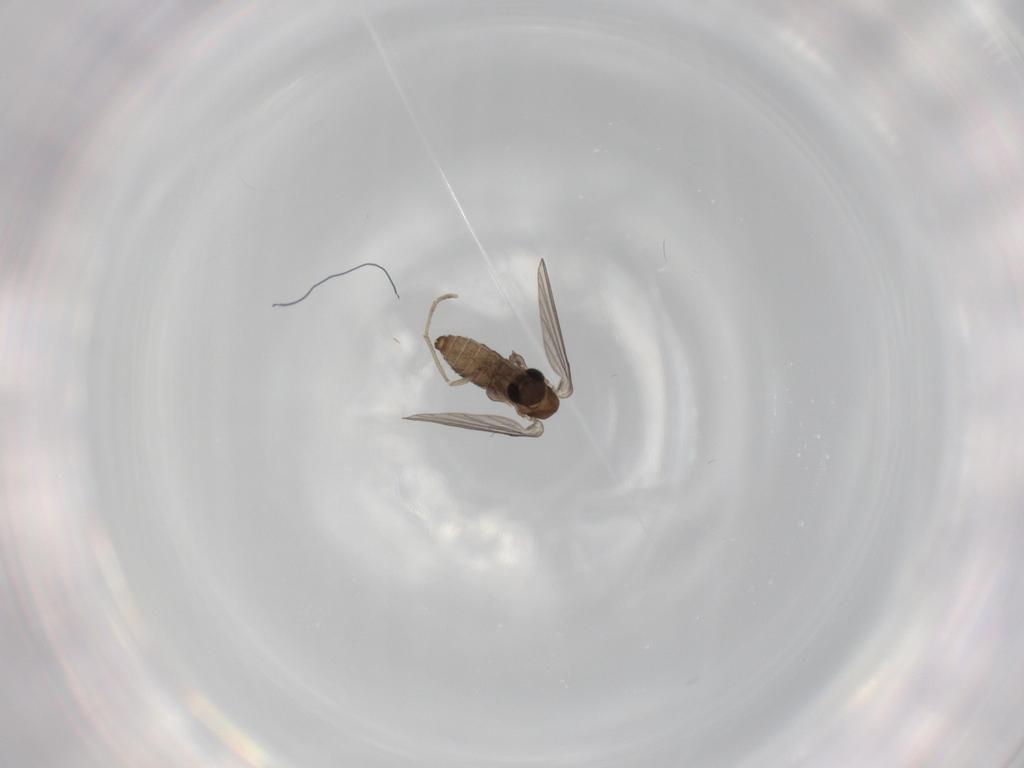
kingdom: Animalia
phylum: Arthropoda
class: Insecta
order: Diptera
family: Psychodidae
